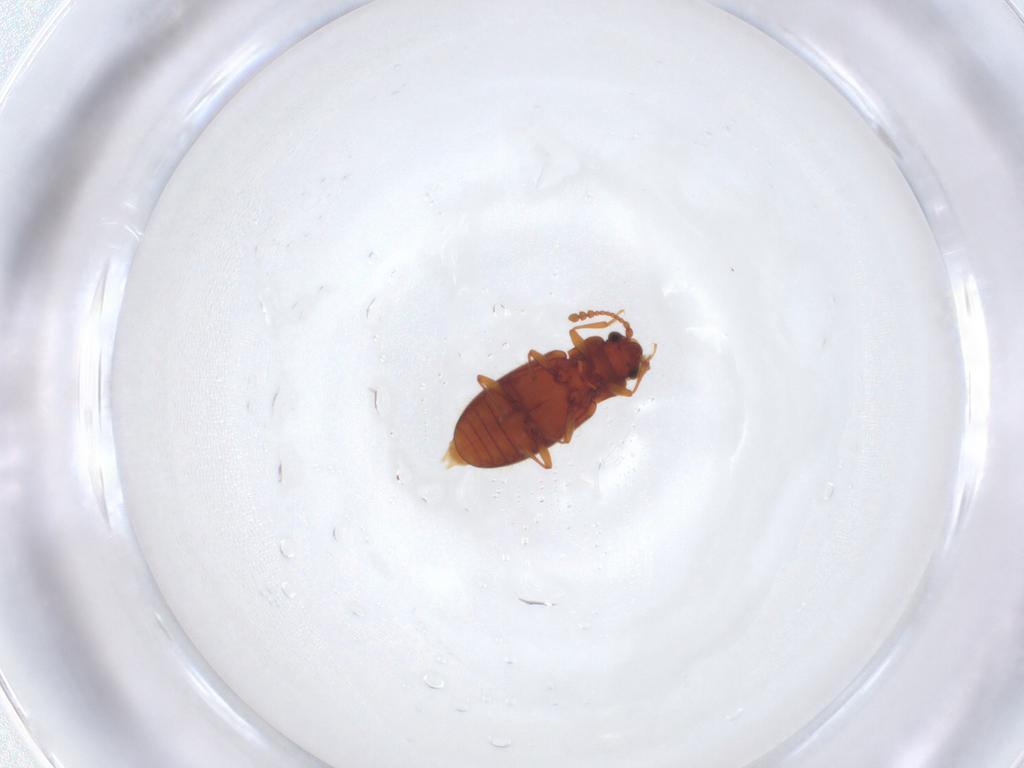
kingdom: Animalia
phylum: Arthropoda
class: Insecta
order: Coleoptera
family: Cryptophagidae
